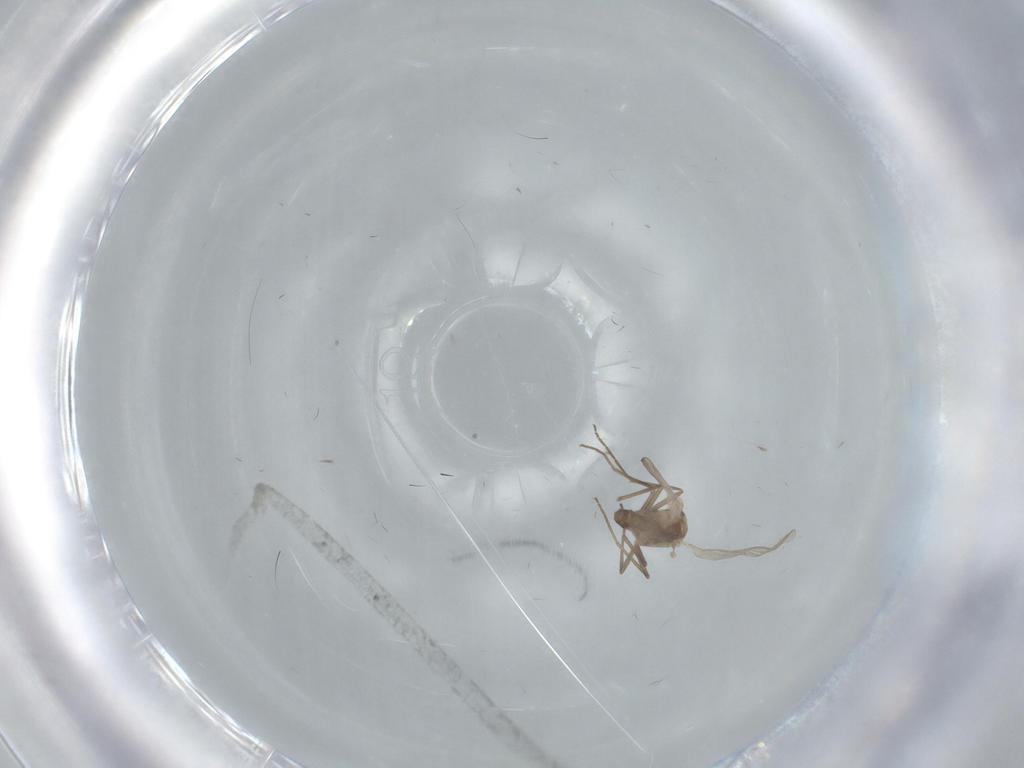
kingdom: Animalia
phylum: Arthropoda
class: Insecta
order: Diptera
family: Chironomidae
